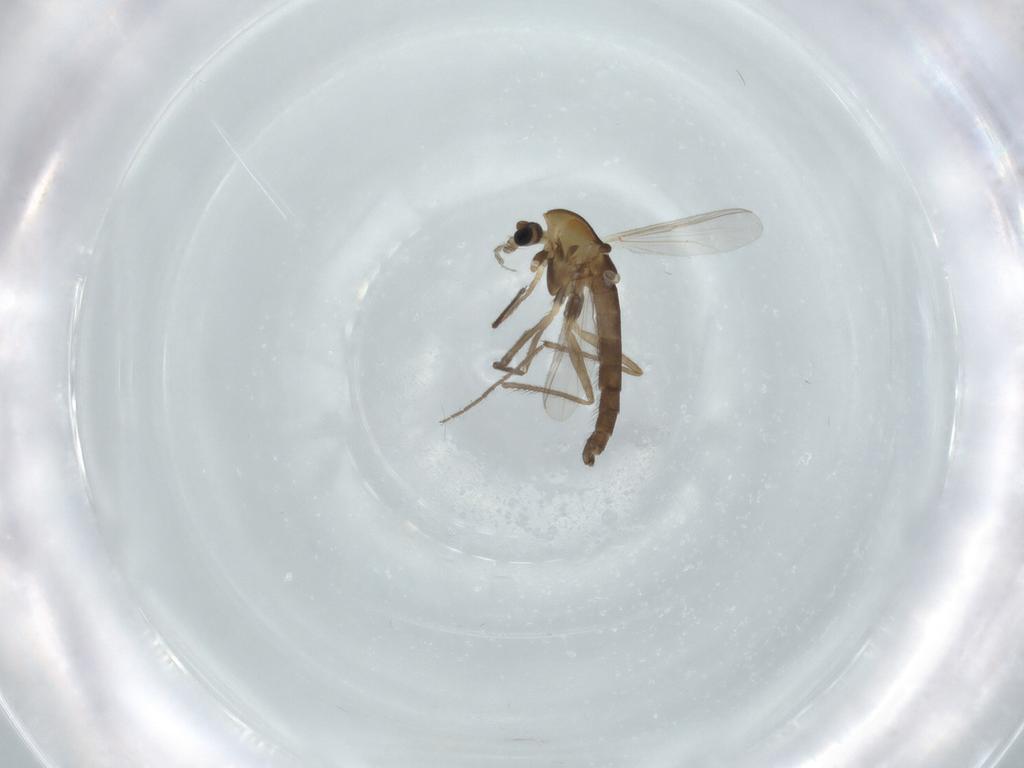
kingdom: Animalia
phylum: Arthropoda
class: Insecta
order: Diptera
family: Chironomidae
